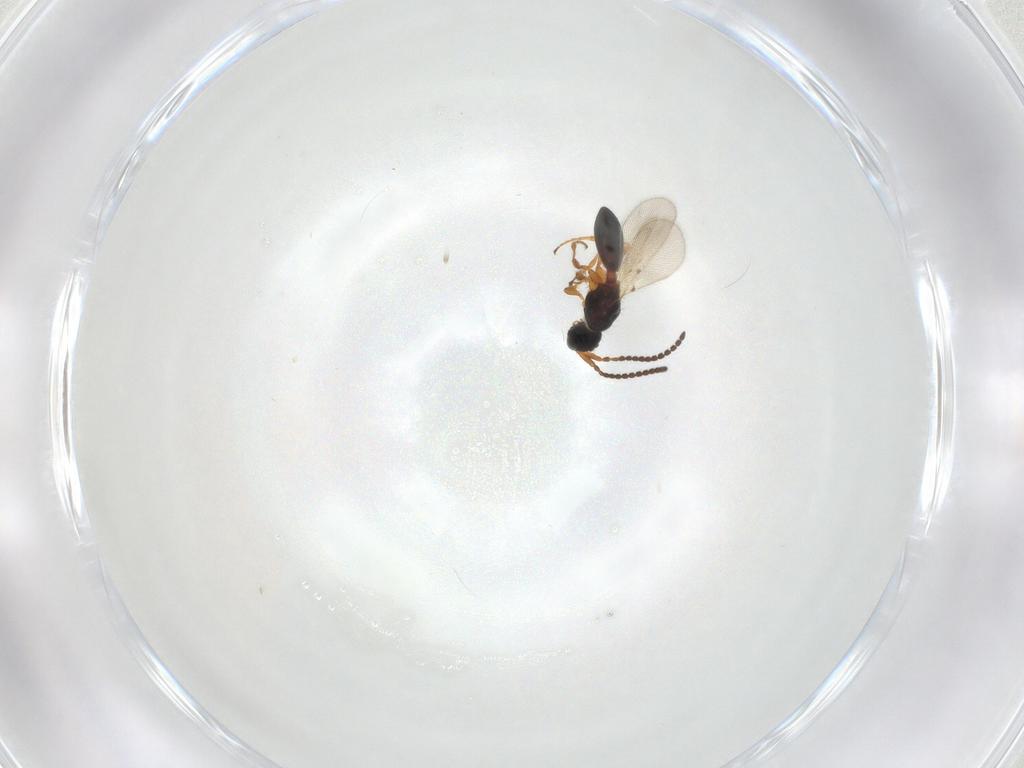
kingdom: Animalia
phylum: Arthropoda
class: Insecta
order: Hymenoptera
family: Diapriidae
